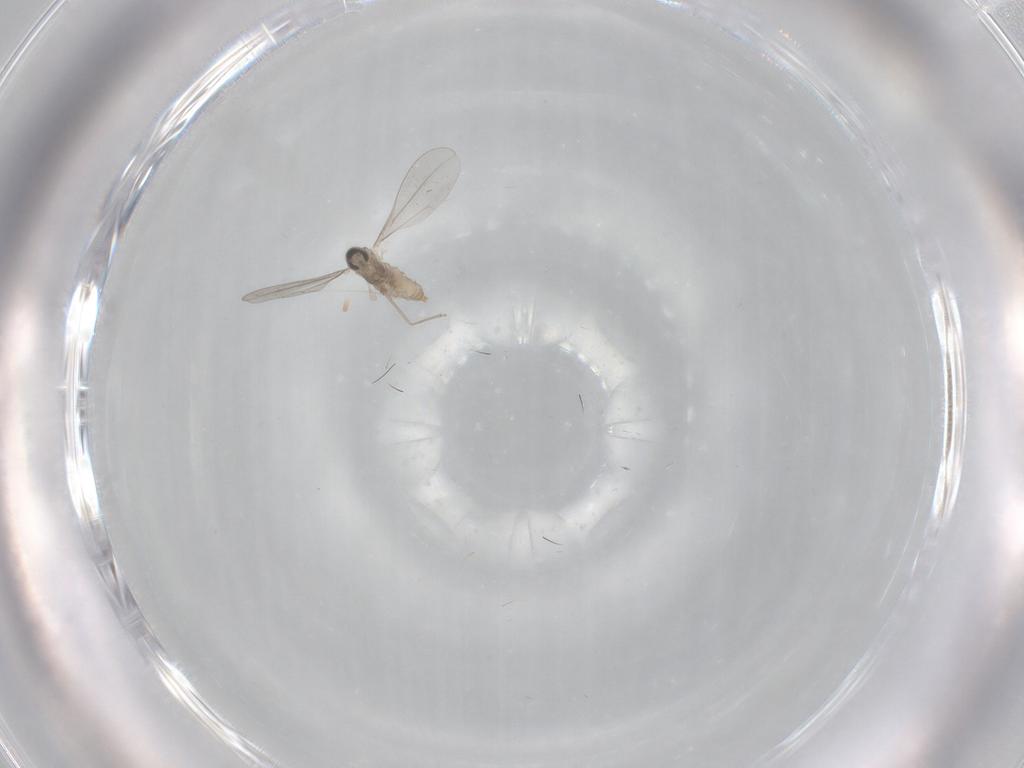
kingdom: Animalia
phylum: Arthropoda
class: Insecta
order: Diptera
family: Cecidomyiidae
